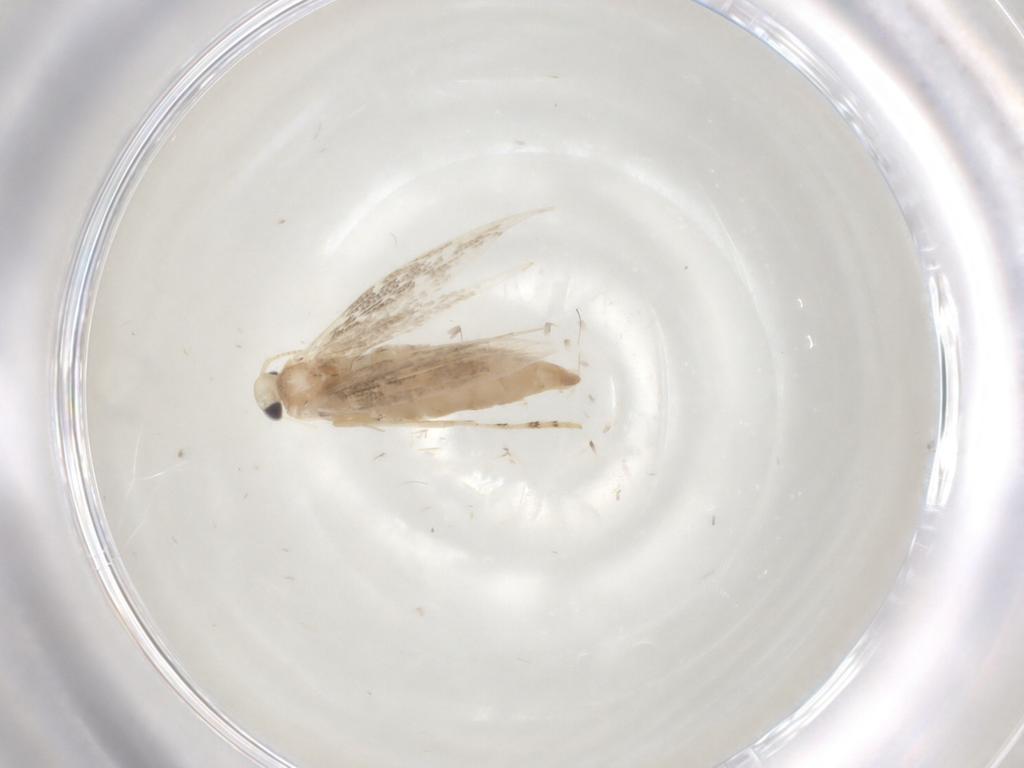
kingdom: Animalia
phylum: Arthropoda
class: Insecta
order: Lepidoptera
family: Gracillariidae
